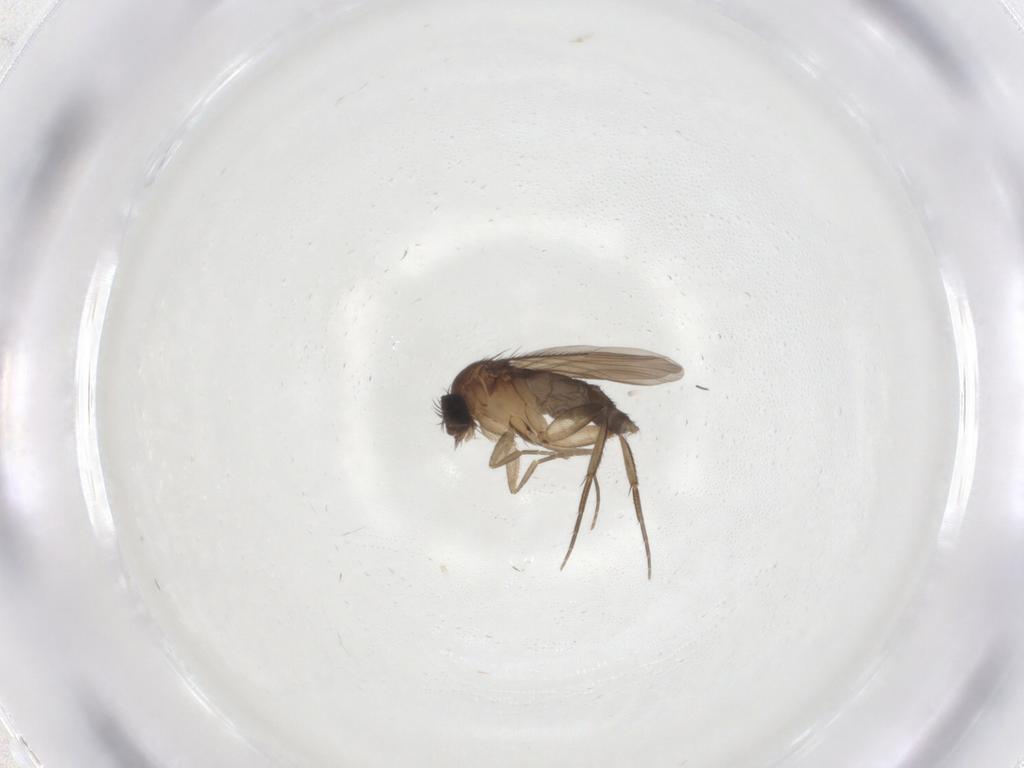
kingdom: Animalia
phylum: Arthropoda
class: Insecta
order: Diptera
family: Phoridae
